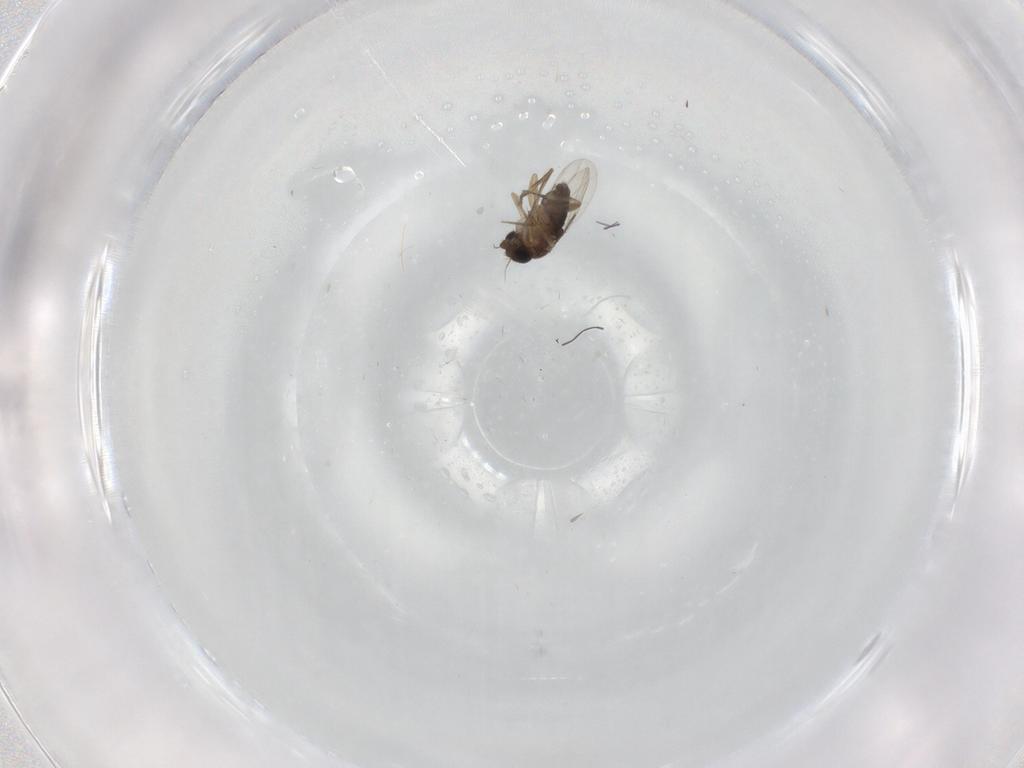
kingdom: Animalia
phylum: Arthropoda
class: Insecta
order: Diptera
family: Phoridae
